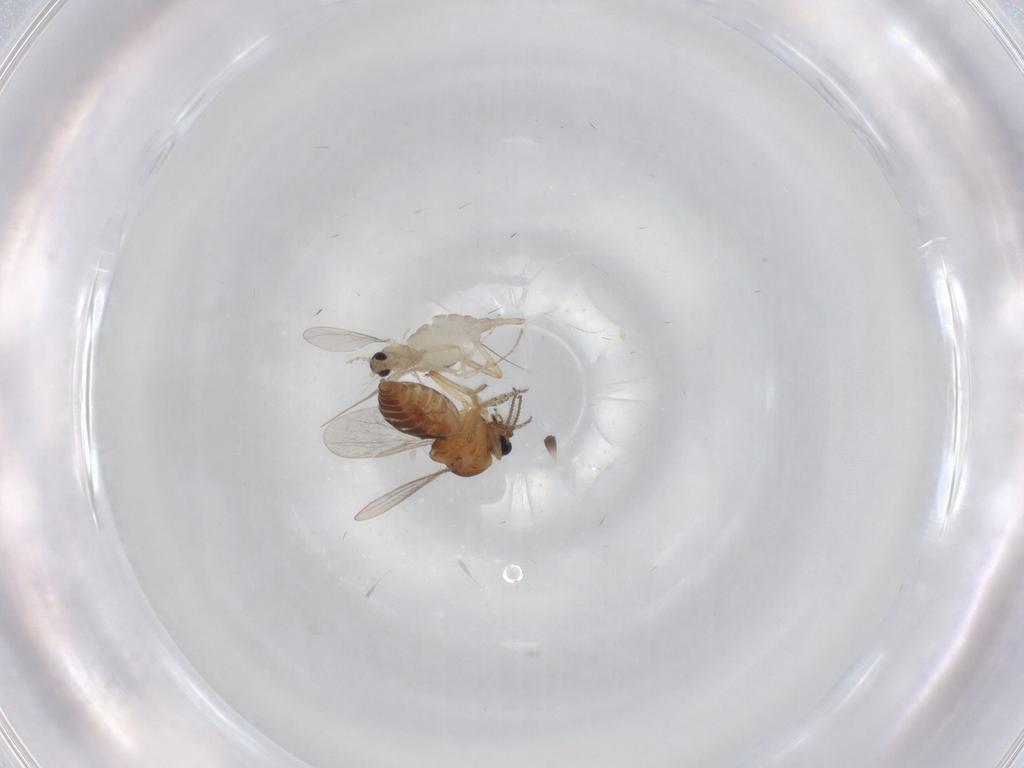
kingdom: Animalia
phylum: Arthropoda
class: Insecta
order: Diptera
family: Ceratopogonidae
